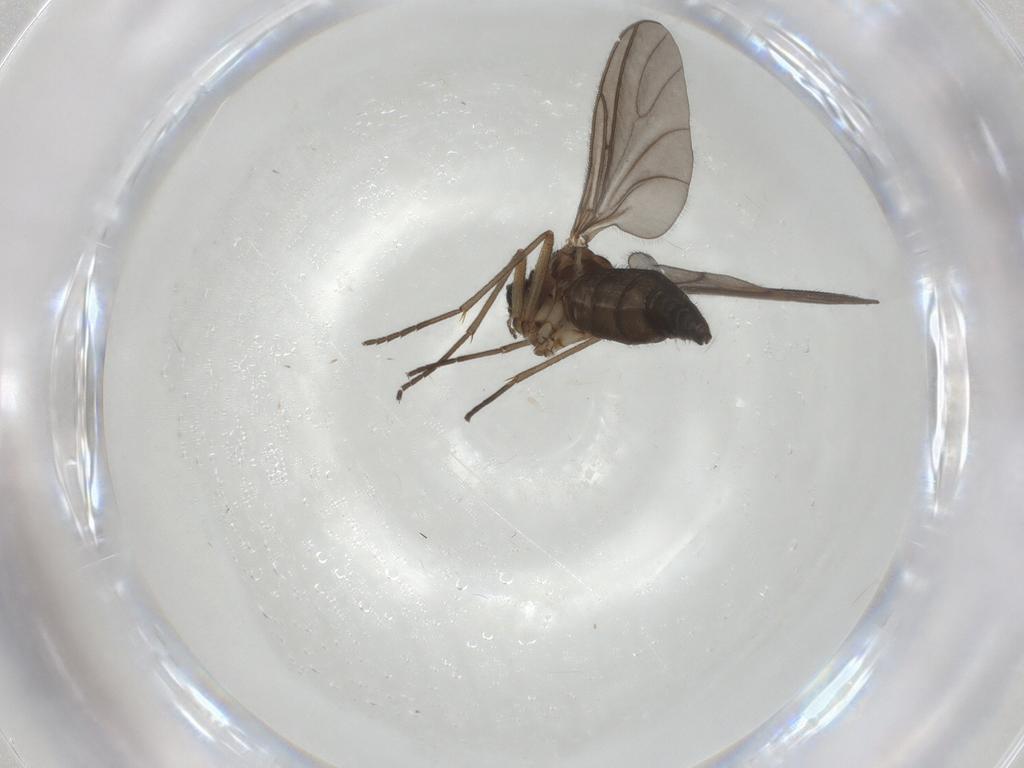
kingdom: Animalia
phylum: Arthropoda
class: Insecta
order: Diptera
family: Sciaridae
